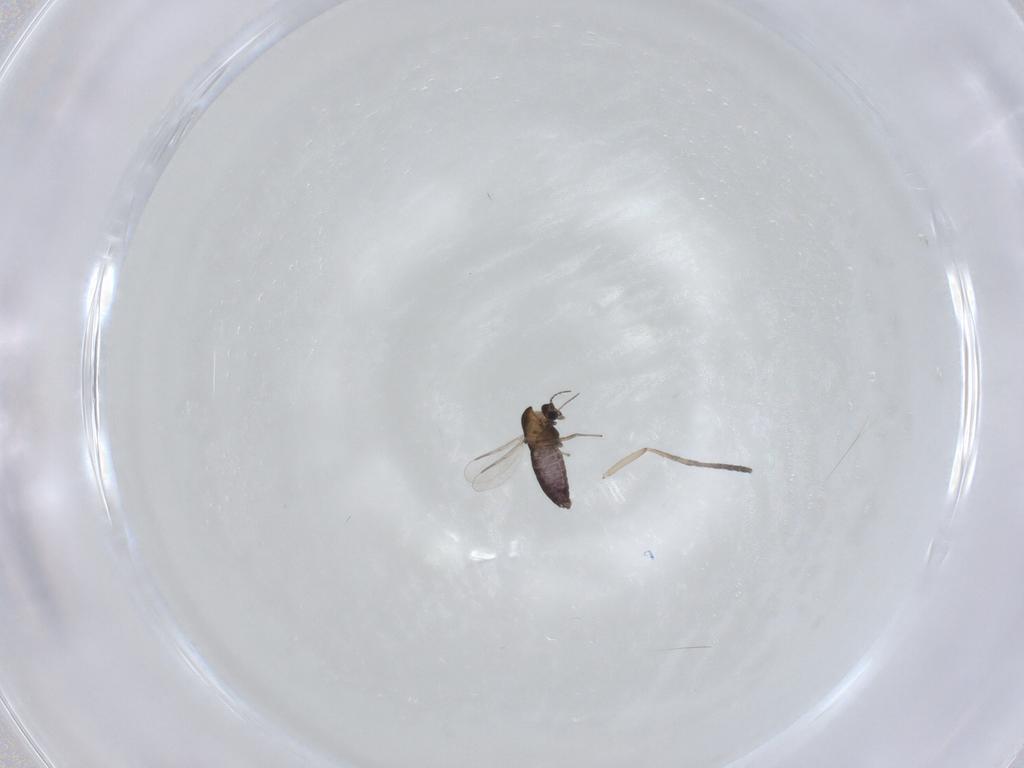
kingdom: Animalia
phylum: Arthropoda
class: Insecta
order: Diptera
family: Chironomidae
